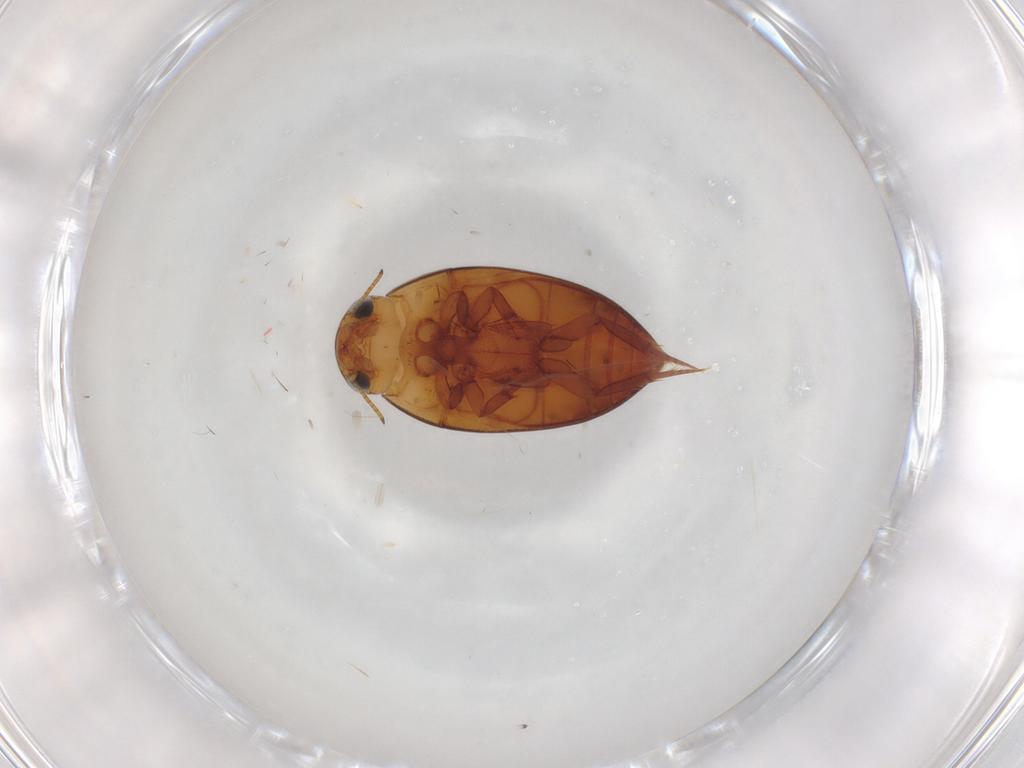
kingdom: Animalia
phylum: Arthropoda
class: Insecta
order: Coleoptera
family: Noteridae
